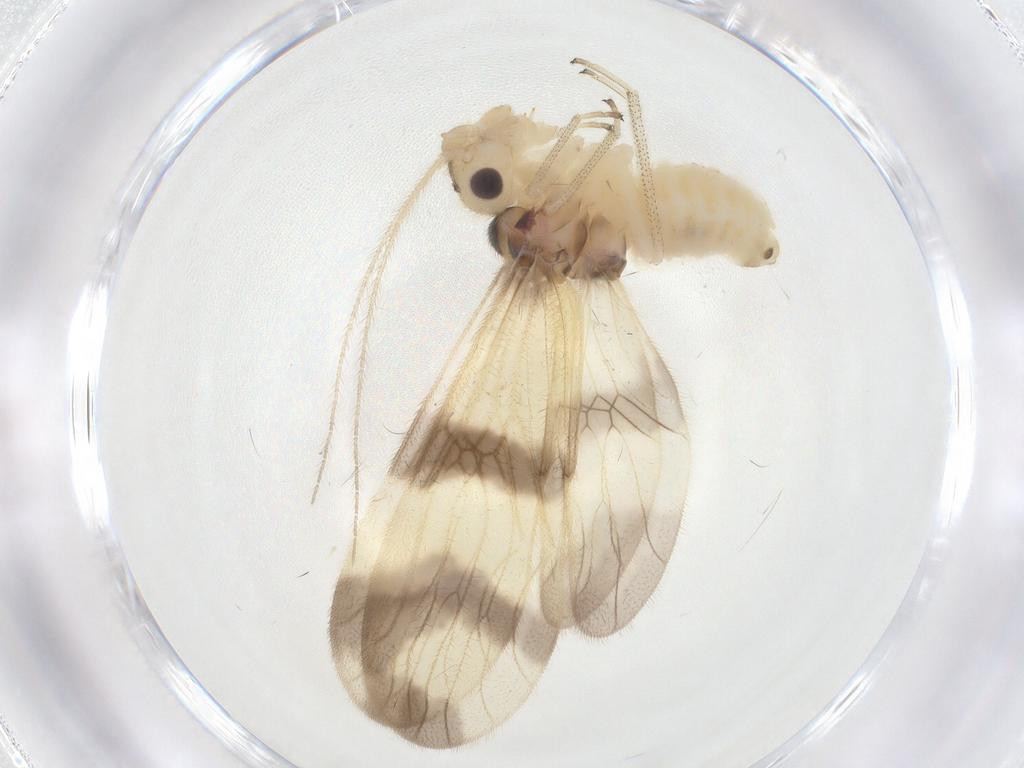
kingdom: Animalia
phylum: Arthropoda
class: Insecta
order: Psocodea
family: Amphipsocidae
